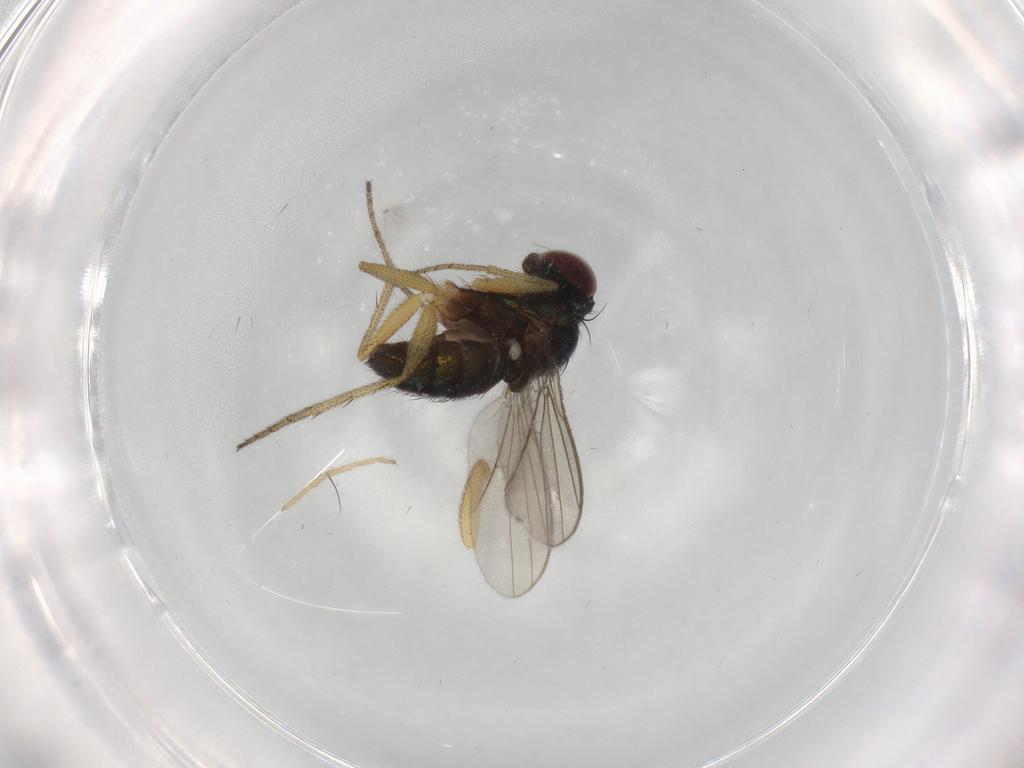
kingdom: Animalia
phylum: Arthropoda
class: Insecta
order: Diptera
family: Dolichopodidae
